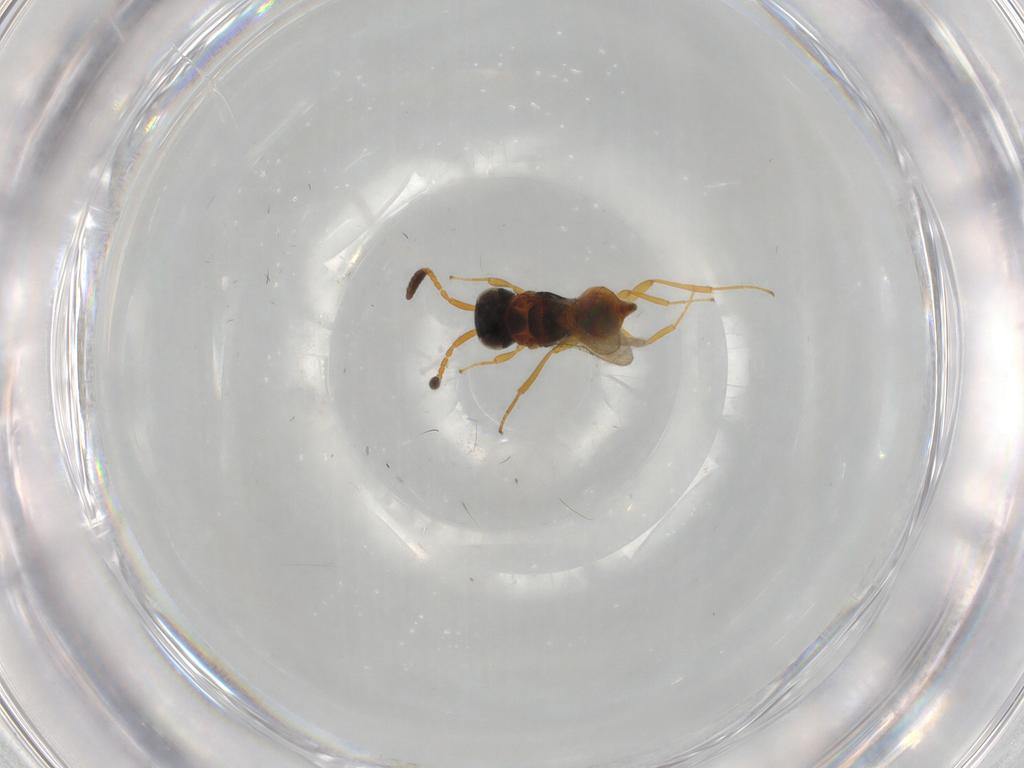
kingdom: Animalia
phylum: Arthropoda
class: Insecta
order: Hymenoptera
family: Scelionidae
